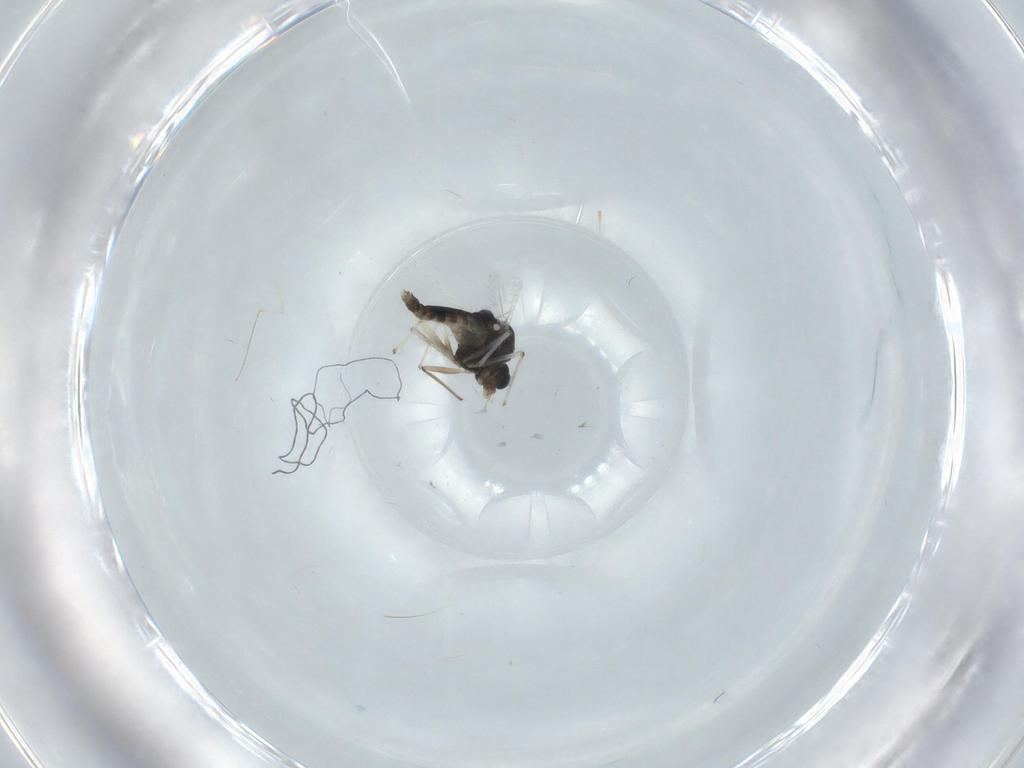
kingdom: Animalia
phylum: Arthropoda
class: Insecta
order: Diptera
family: Chironomidae
